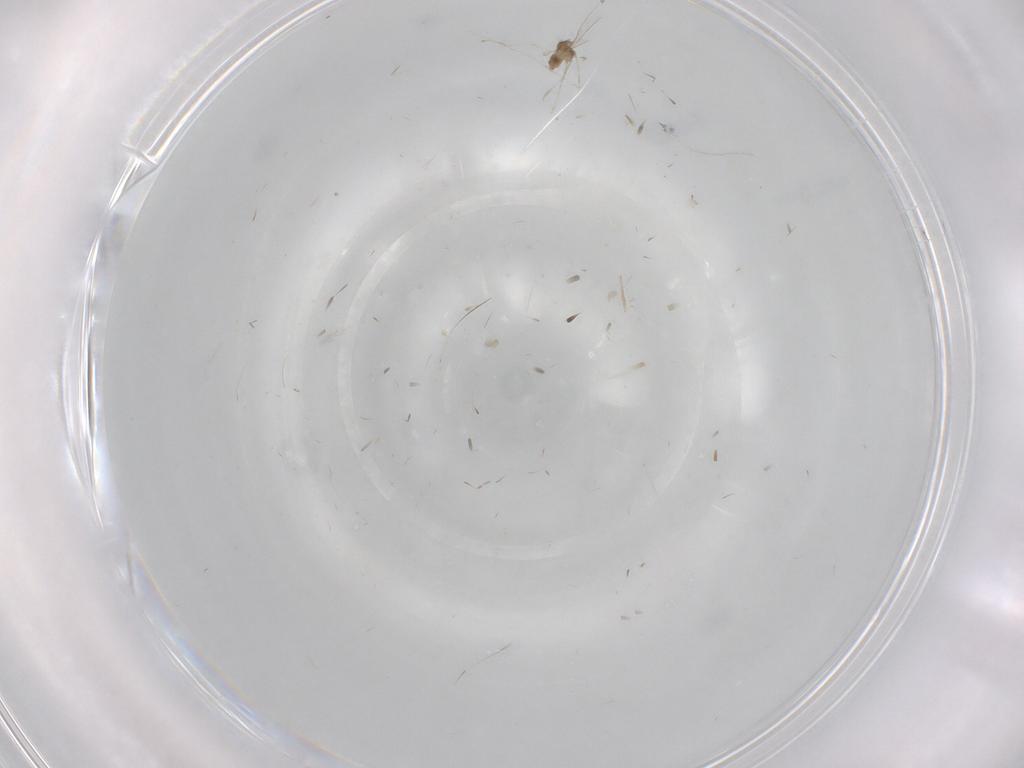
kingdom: Animalia
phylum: Arthropoda
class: Insecta
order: Diptera
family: Cecidomyiidae
